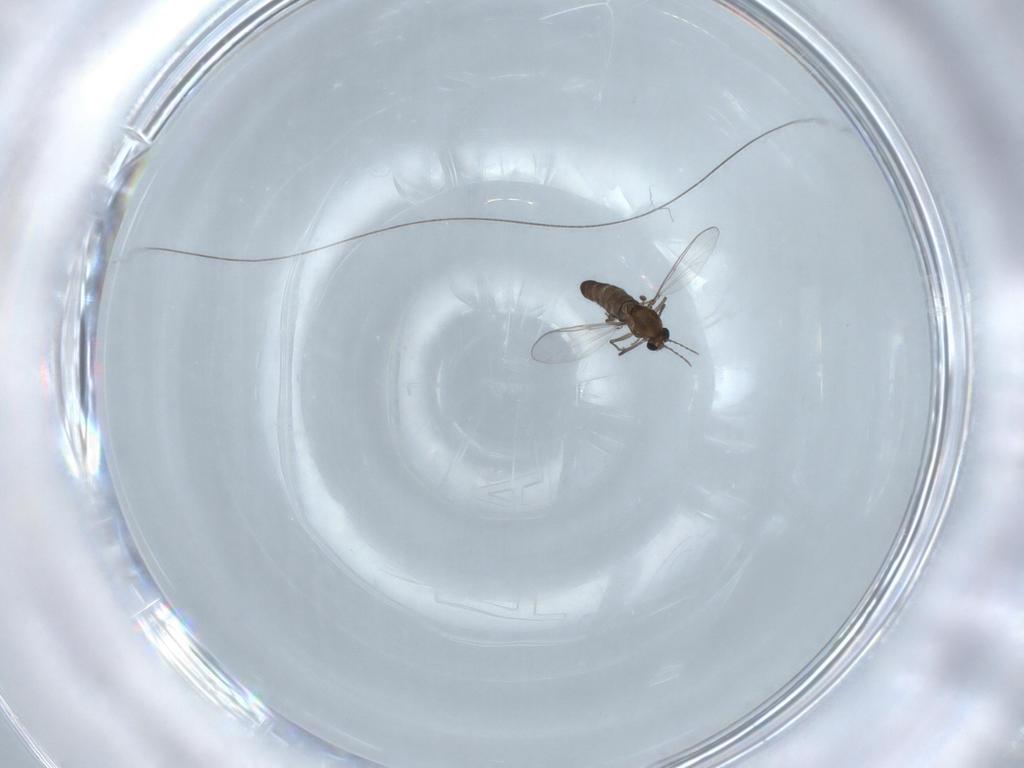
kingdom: Animalia
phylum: Arthropoda
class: Insecta
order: Diptera
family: Chironomidae
